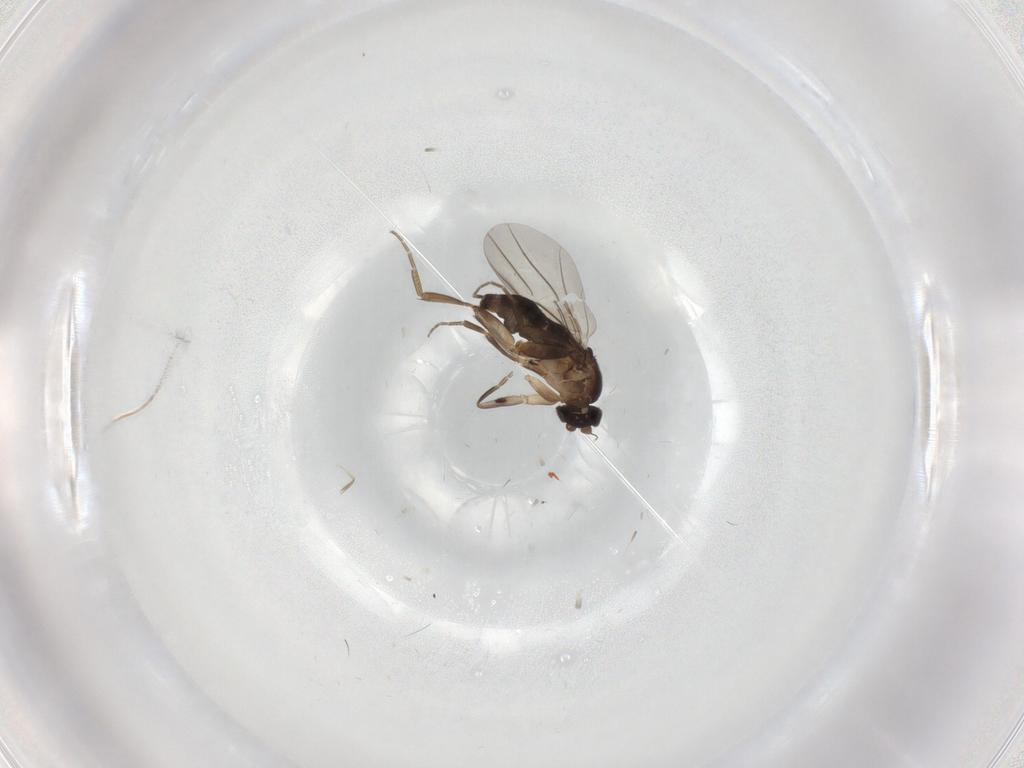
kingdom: Animalia
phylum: Arthropoda
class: Insecta
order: Diptera
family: Phoridae
